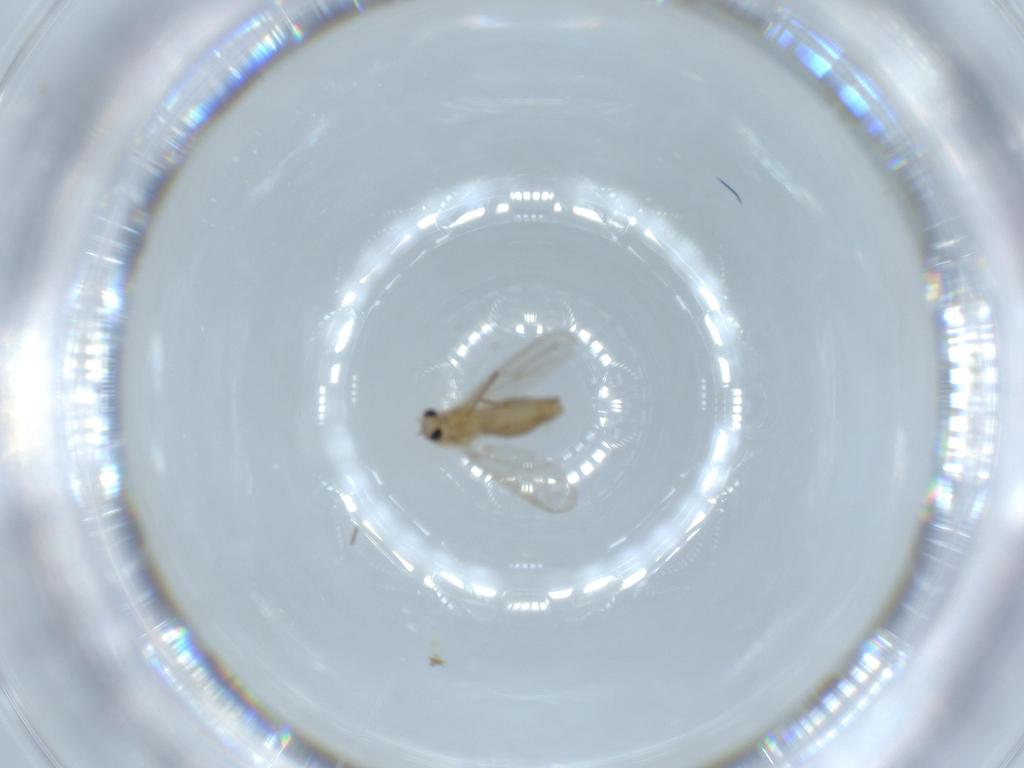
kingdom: Animalia
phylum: Arthropoda
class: Insecta
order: Diptera
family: Chironomidae
